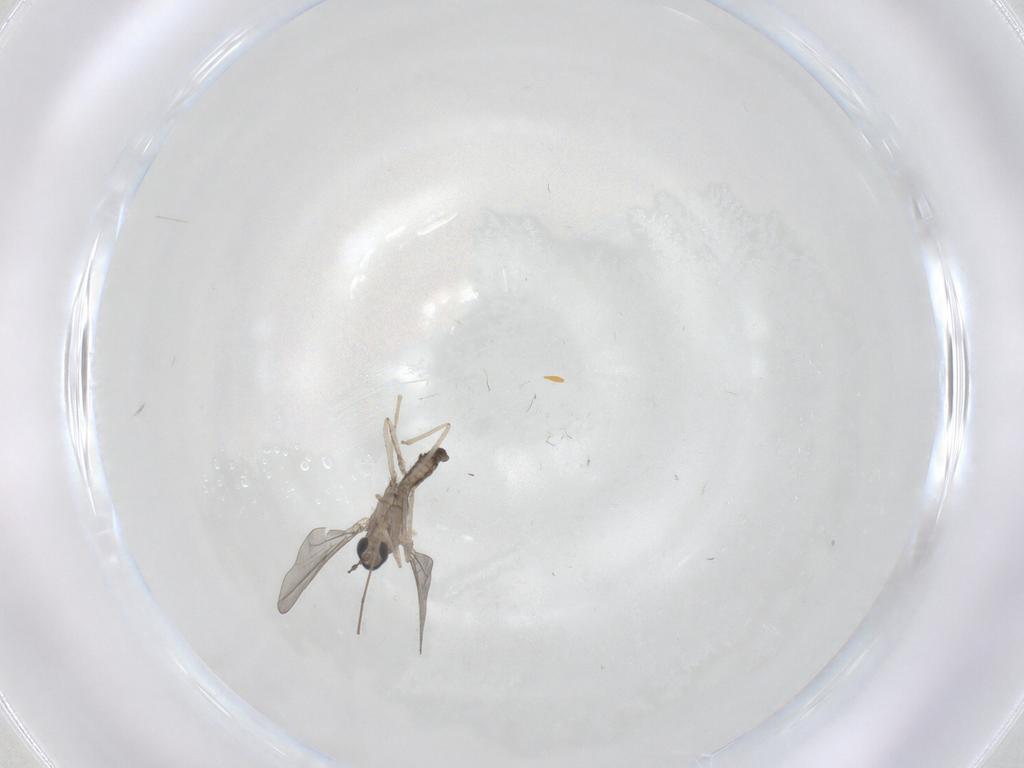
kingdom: Animalia
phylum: Arthropoda
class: Insecta
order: Diptera
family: Cecidomyiidae
